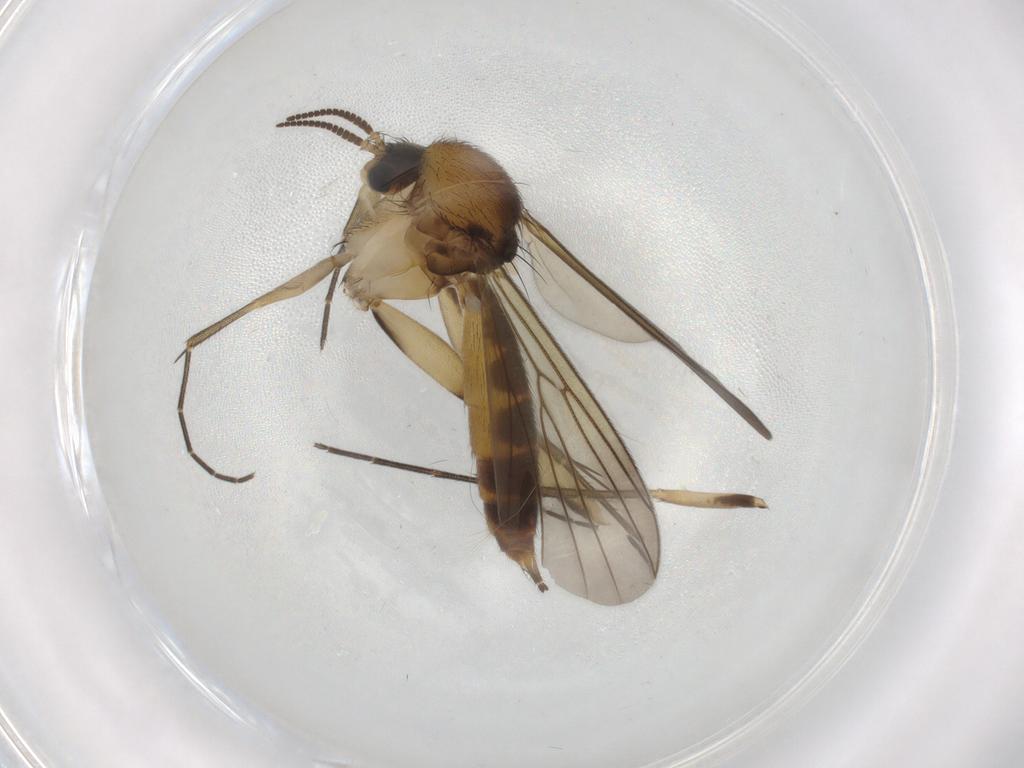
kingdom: Animalia
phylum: Arthropoda
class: Insecta
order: Diptera
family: Mycetophilidae
